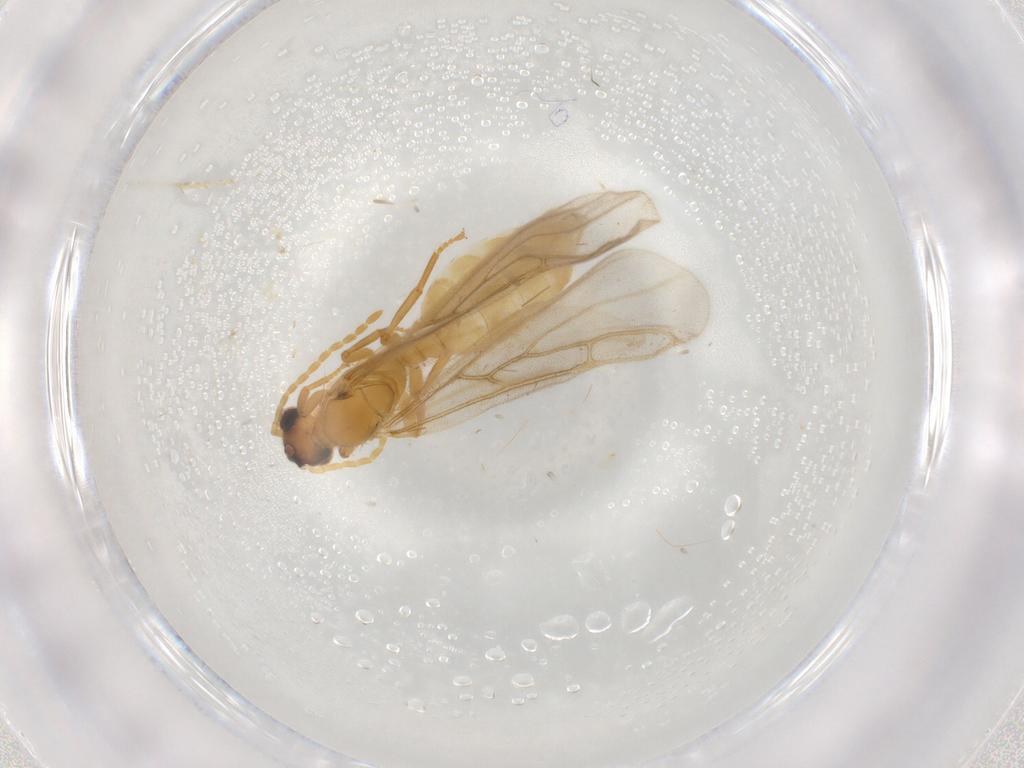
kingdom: Animalia
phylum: Arthropoda
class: Insecta
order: Hymenoptera
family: Formicidae
